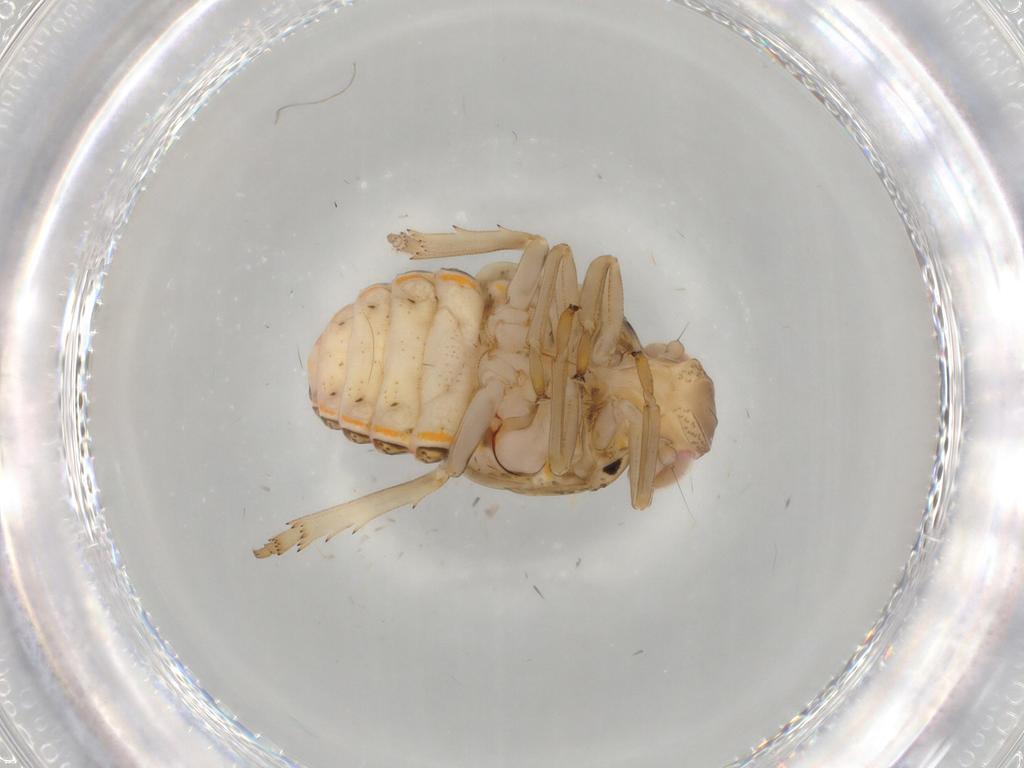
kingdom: Animalia
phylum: Arthropoda
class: Insecta
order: Hemiptera
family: Issidae
